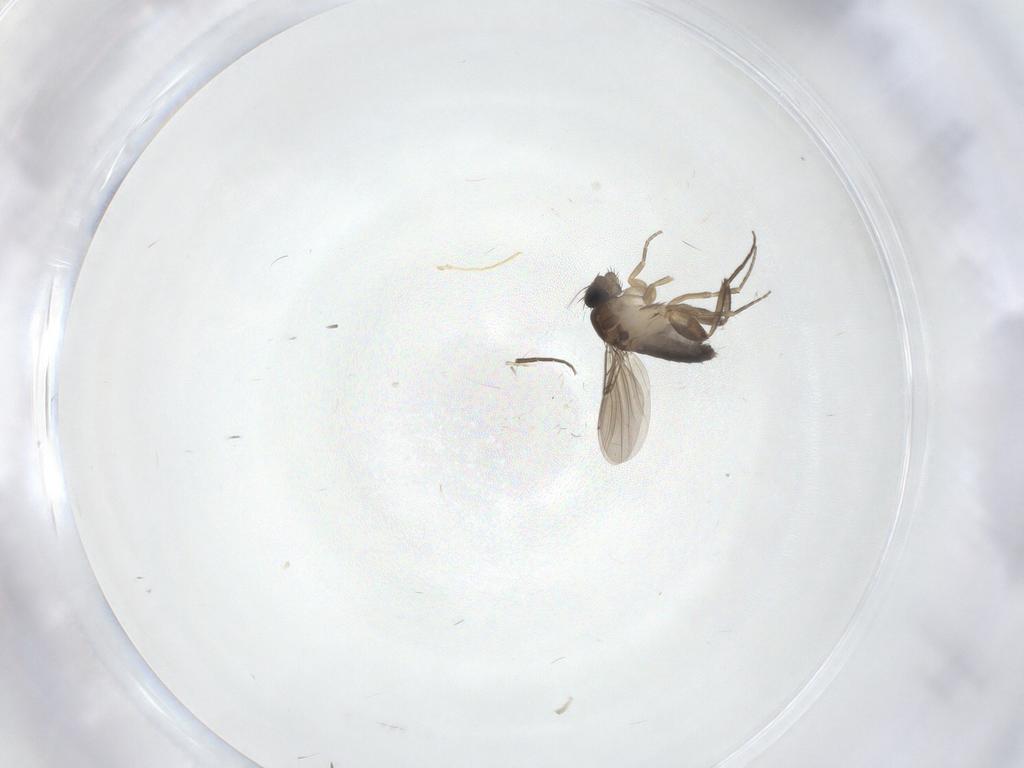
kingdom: Animalia
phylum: Arthropoda
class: Insecta
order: Diptera
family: Phoridae
